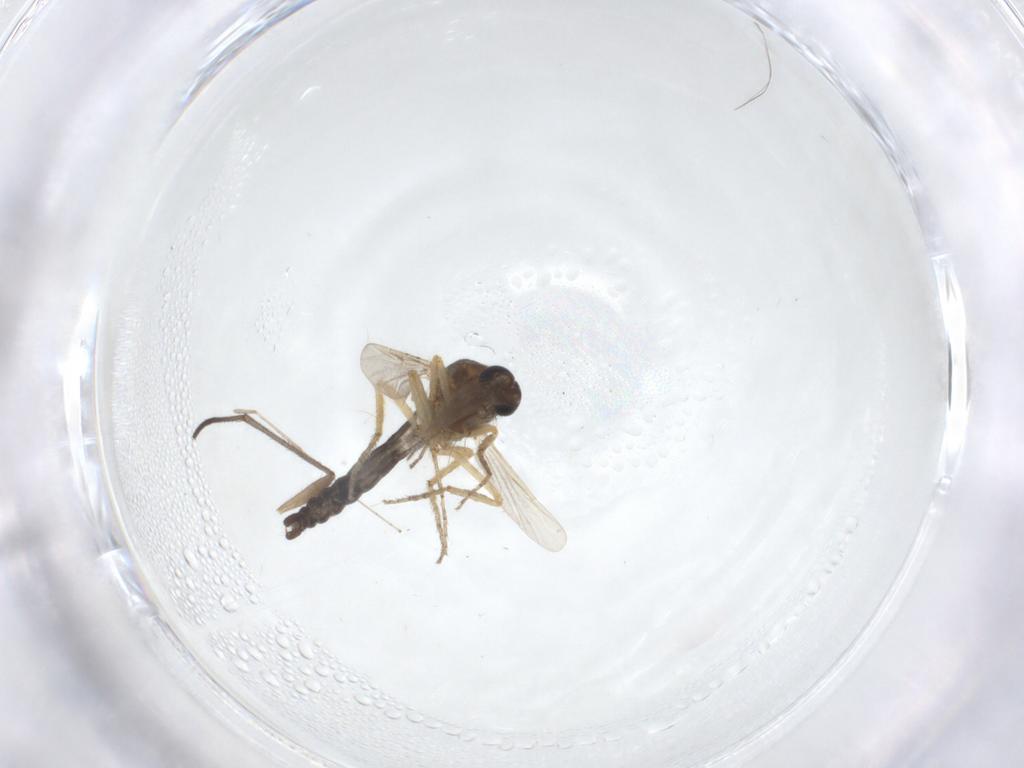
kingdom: Animalia
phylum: Arthropoda
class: Insecta
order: Diptera
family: Ceratopogonidae
